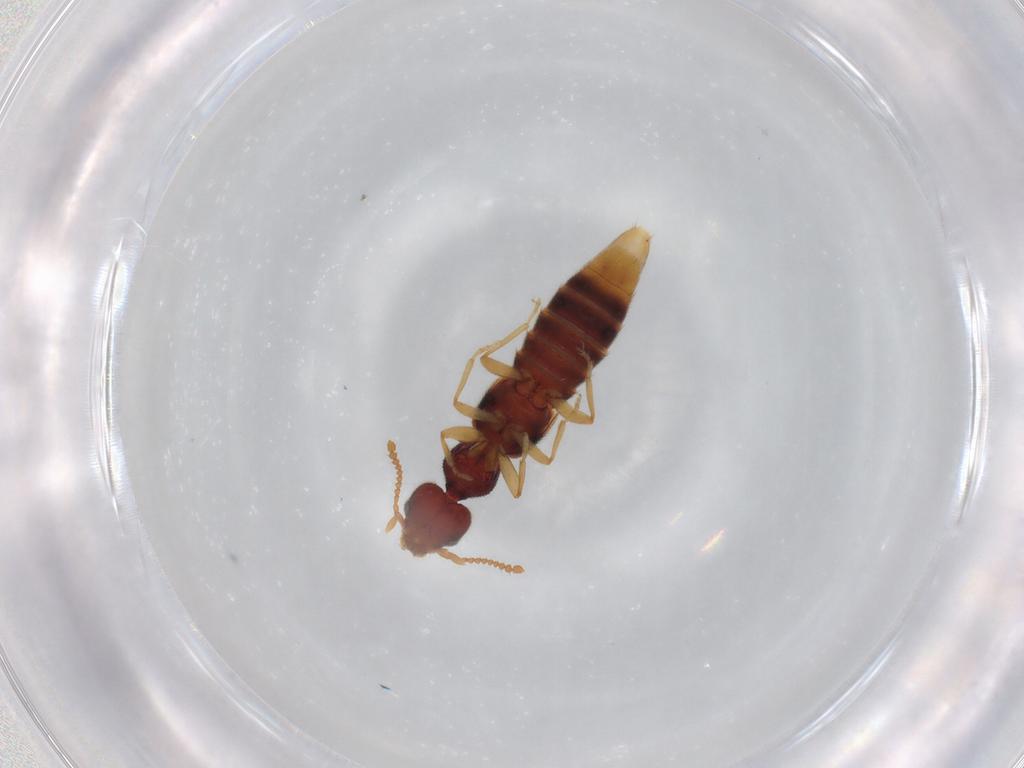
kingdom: Animalia
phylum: Arthropoda
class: Insecta
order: Coleoptera
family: Staphylinidae
